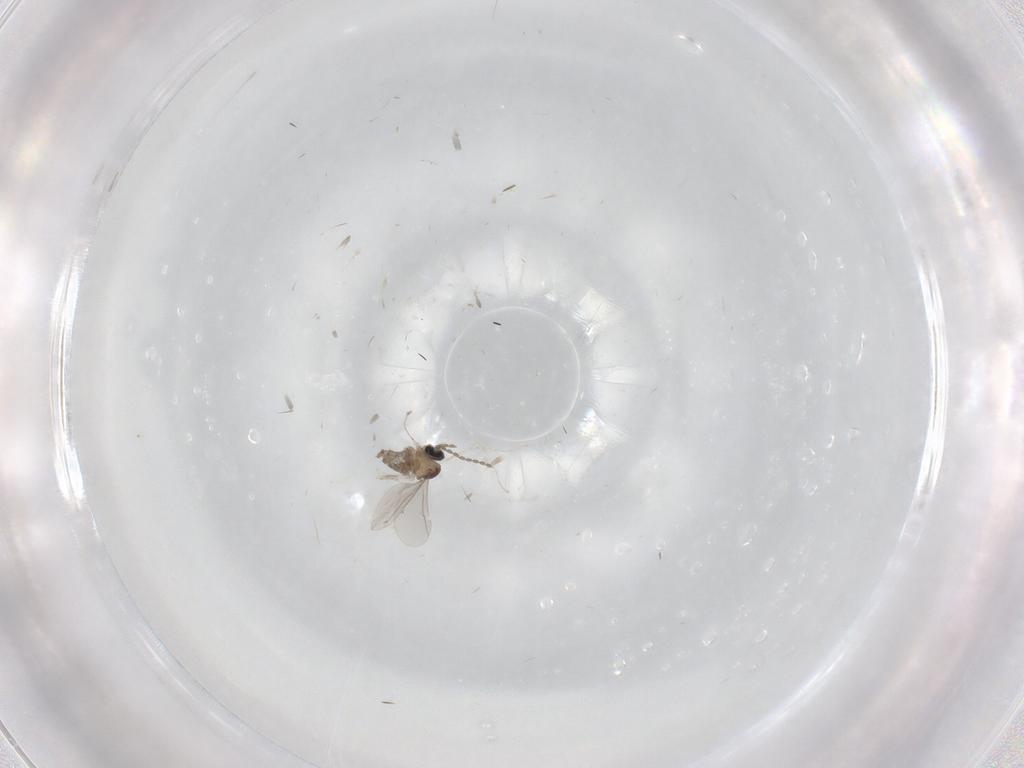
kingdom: Animalia
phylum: Arthropoda
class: Insecta
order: Diptera
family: Cecidomyiidae
